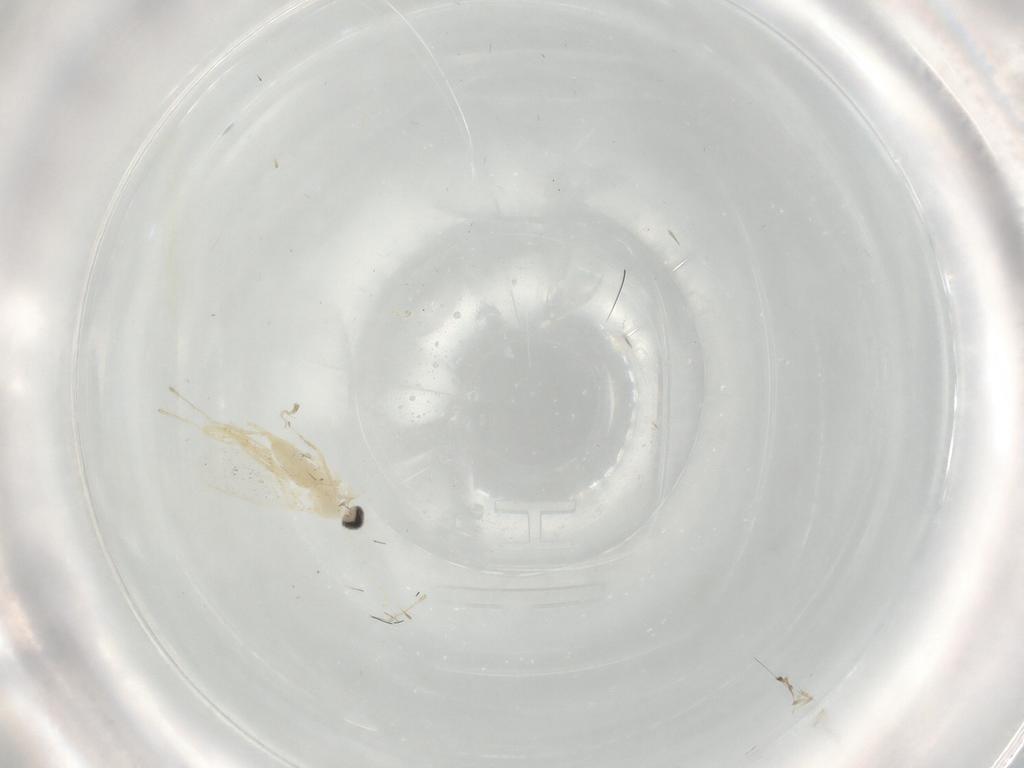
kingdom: Animalia
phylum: Arthropoda
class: Insecta
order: Diptera
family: Cecidomyiidae
